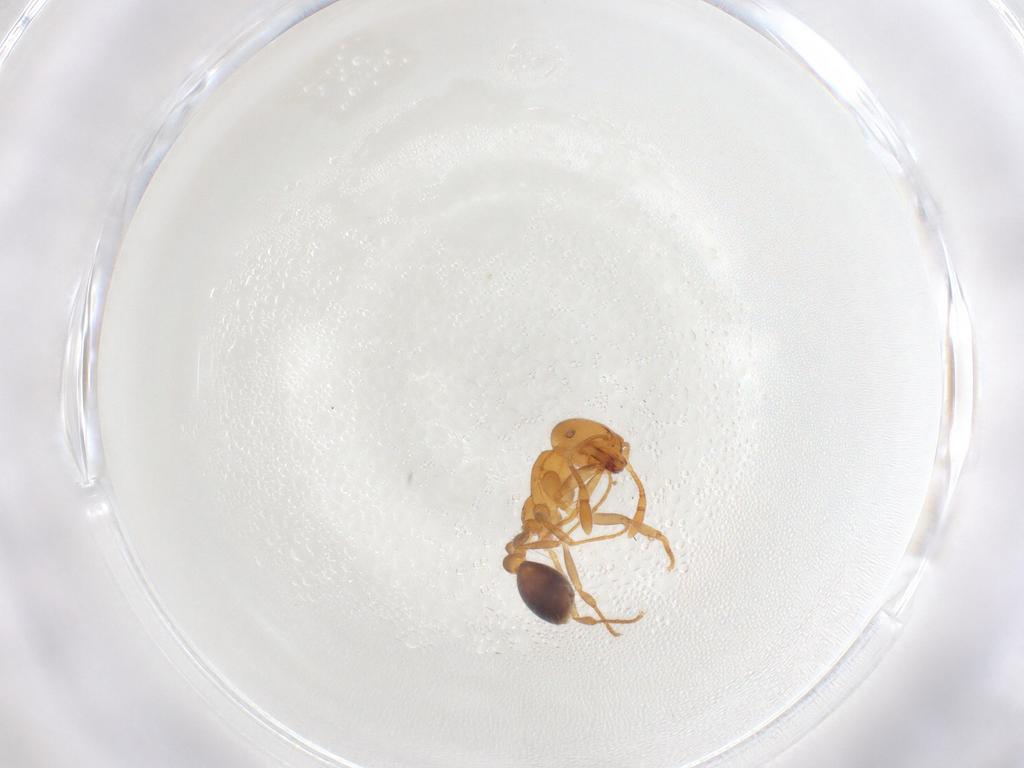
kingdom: Animalia
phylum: Arthropoda
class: Insecta
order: Hymenoptera
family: Formicidae
